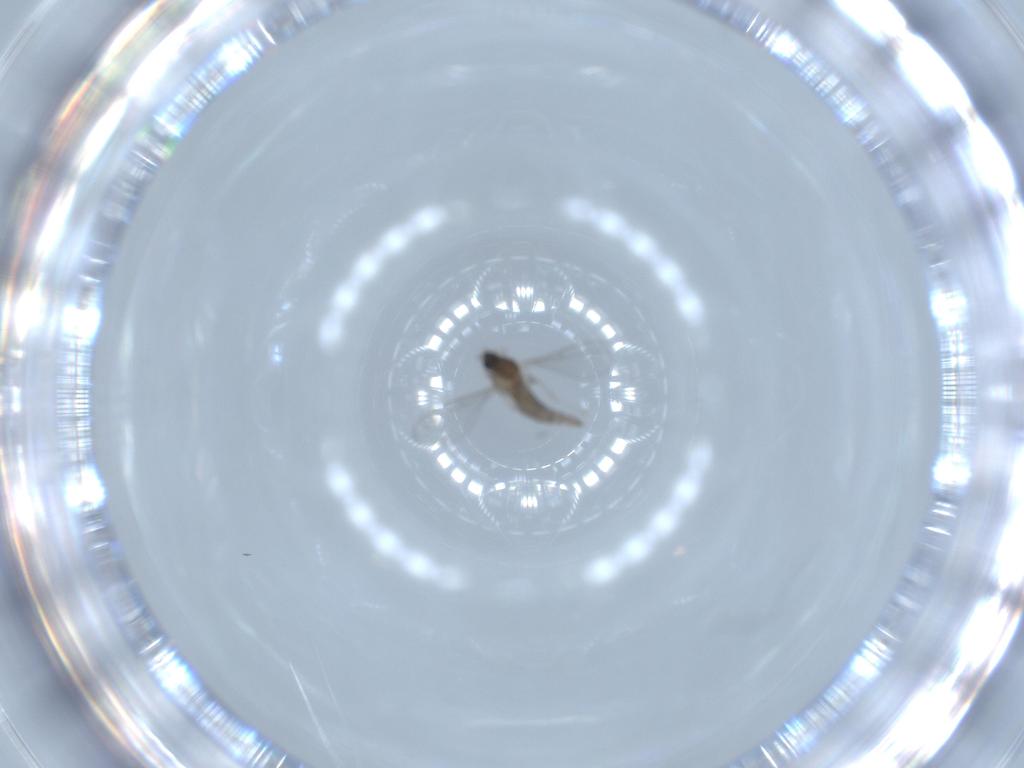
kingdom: Animalia
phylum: Arthropoda
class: Insecta
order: Diptera
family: Cecidomyiidae
